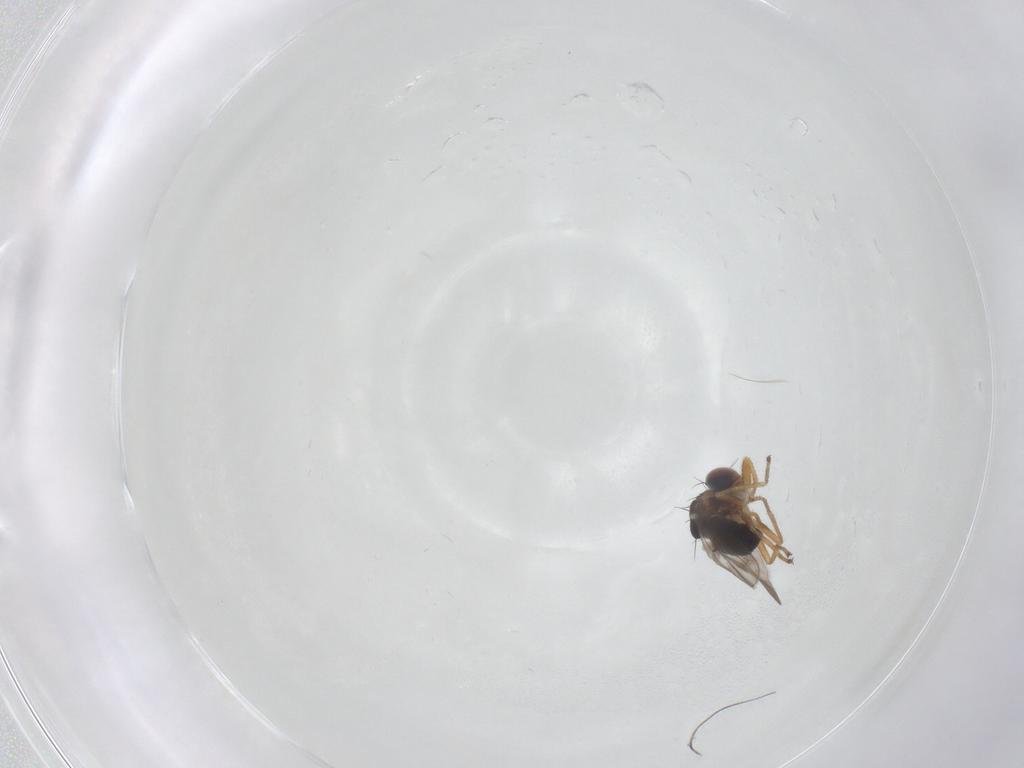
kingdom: Animalia
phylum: Arthropoda
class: Insecta
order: Diptera
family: Ephydridae
